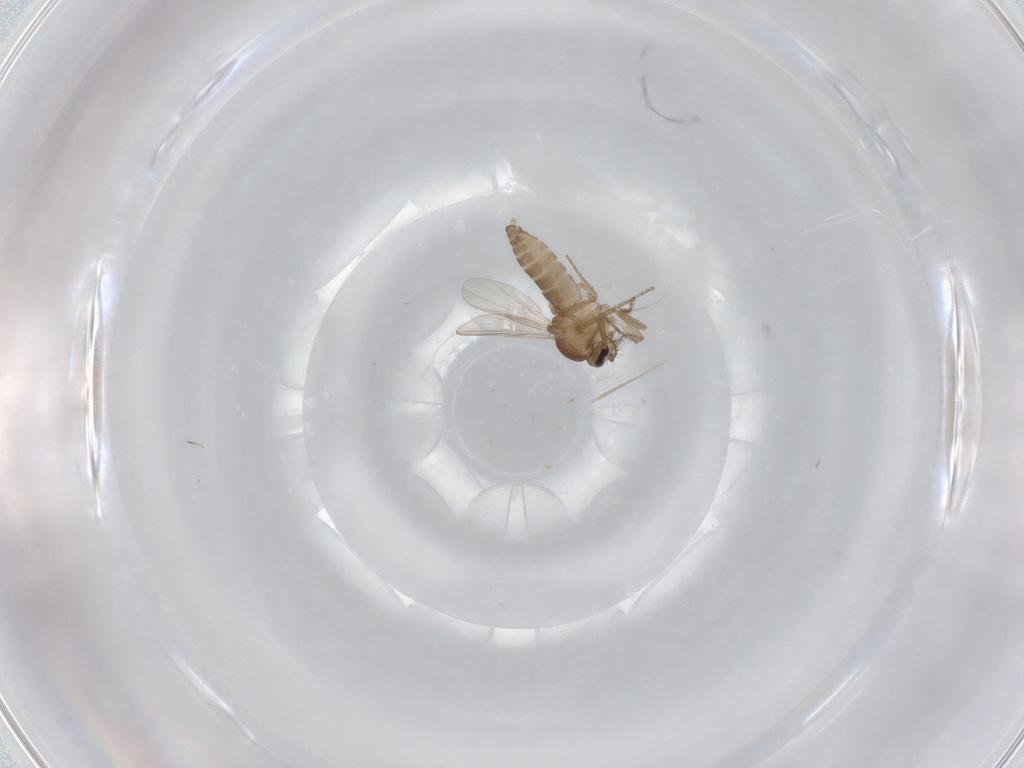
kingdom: Animalia
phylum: Arthropoda
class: Insecta
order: Diptera
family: Ceratopogonidae
